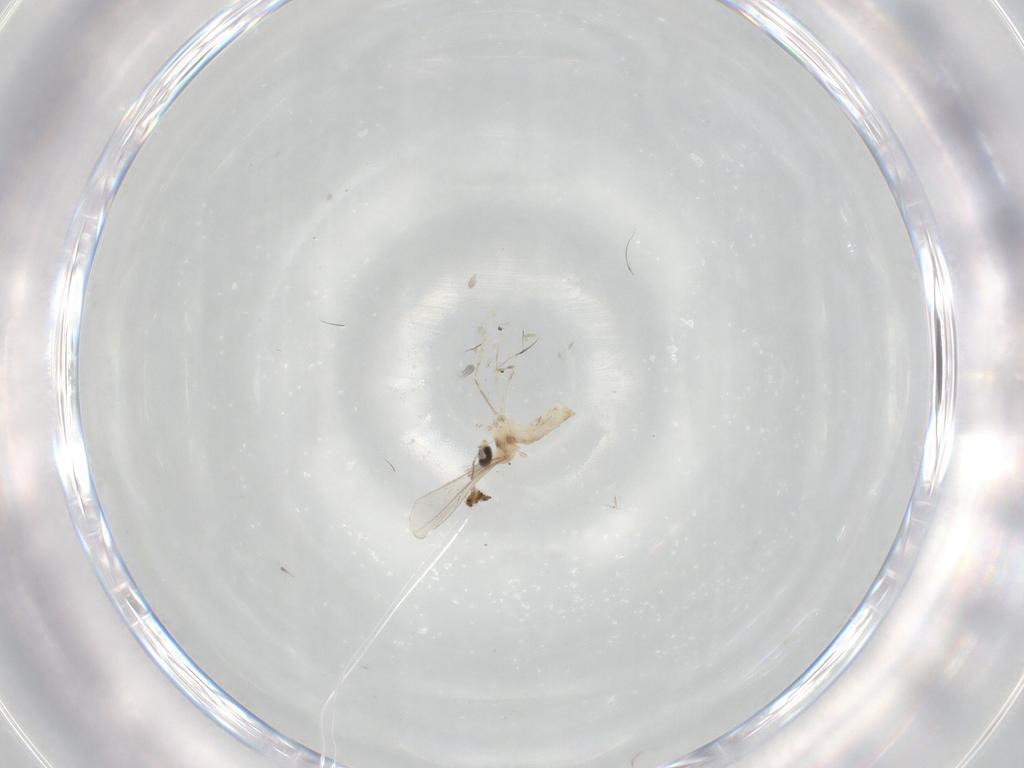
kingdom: Animalia
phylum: Arthropoda
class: Insecta
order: Diptera
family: Cecidomyiidae
